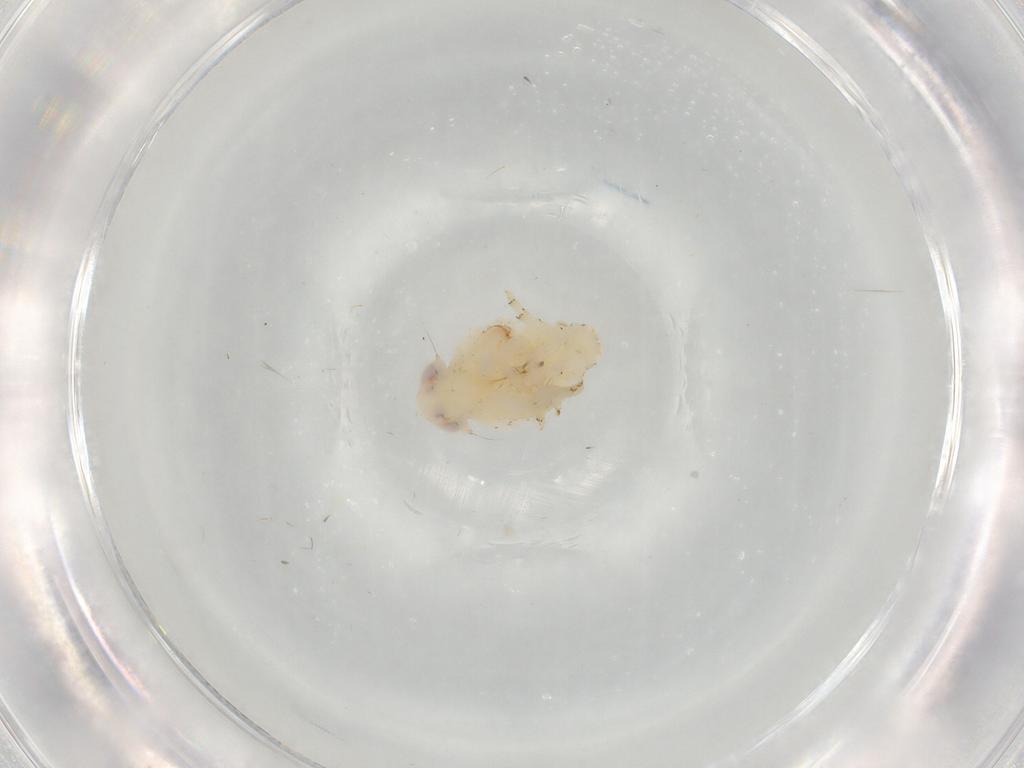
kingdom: Animalia
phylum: Arthropoda
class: Insecta
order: Hemiptera
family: Nogodinidae
